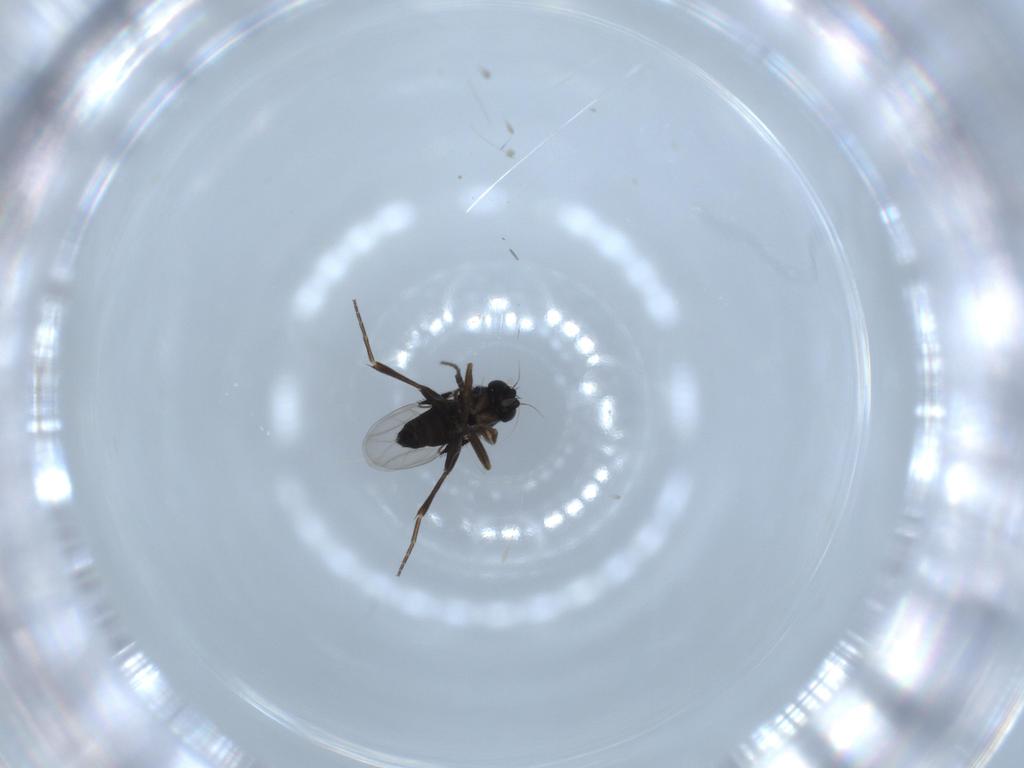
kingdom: Animalia
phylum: Arthropoda
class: Insecta
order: Diptera
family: Phoridae
